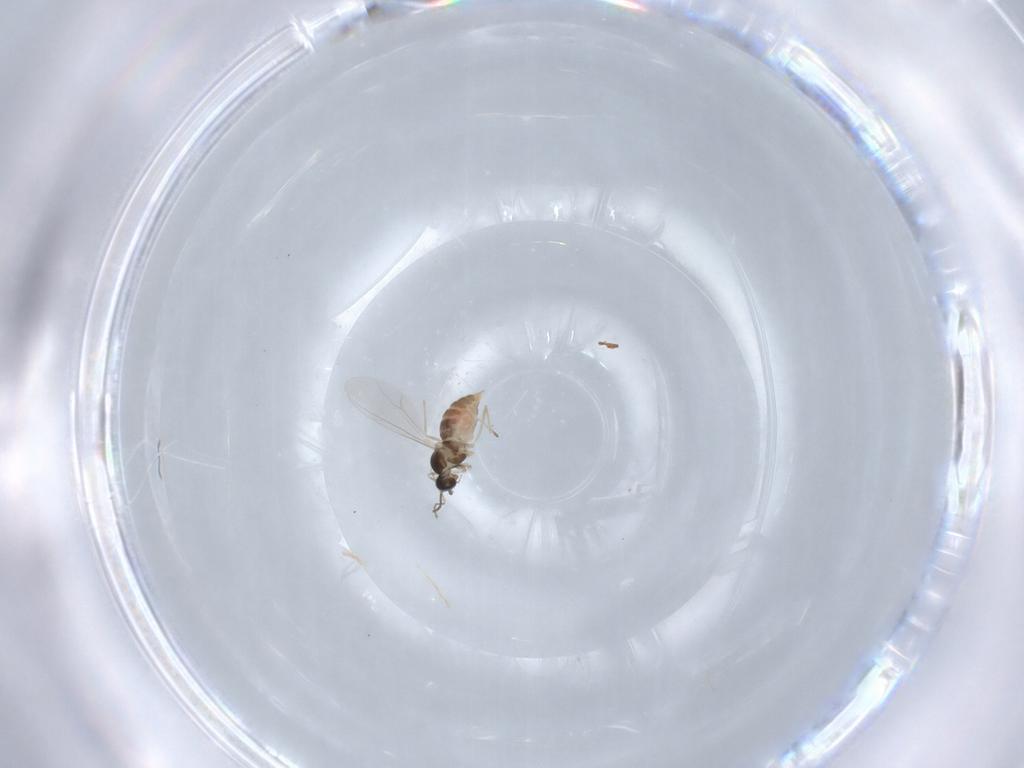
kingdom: Animalia
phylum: Arthropoda
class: Insecta
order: Diptera
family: Cecidomyiidae
